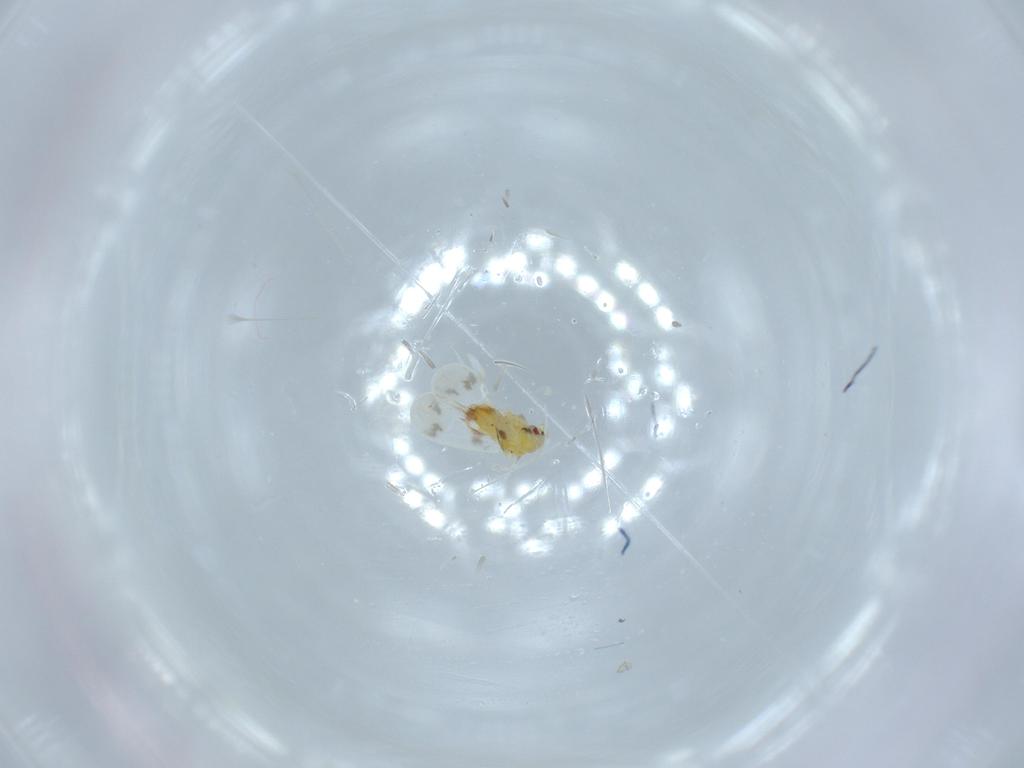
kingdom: Animalia
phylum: Arthropoda
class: Insecta
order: Hemiptera
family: Aleyrodidae
